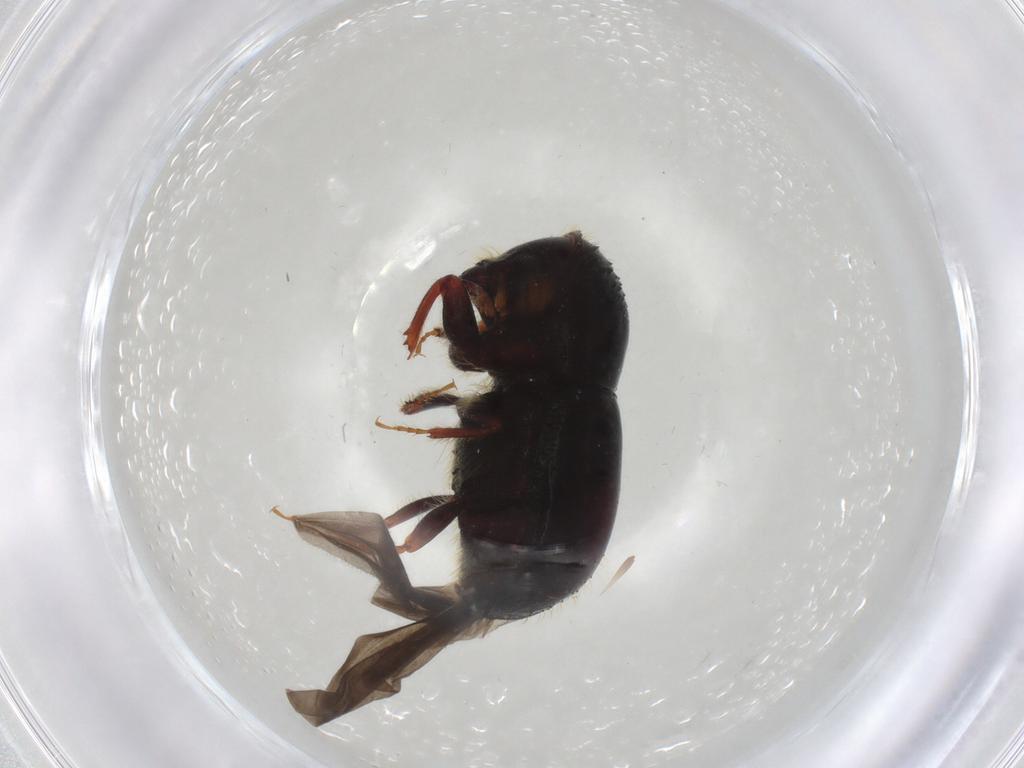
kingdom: Animalia
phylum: Arthropoda
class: Insecta
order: Coleoptera
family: Curculionidae
